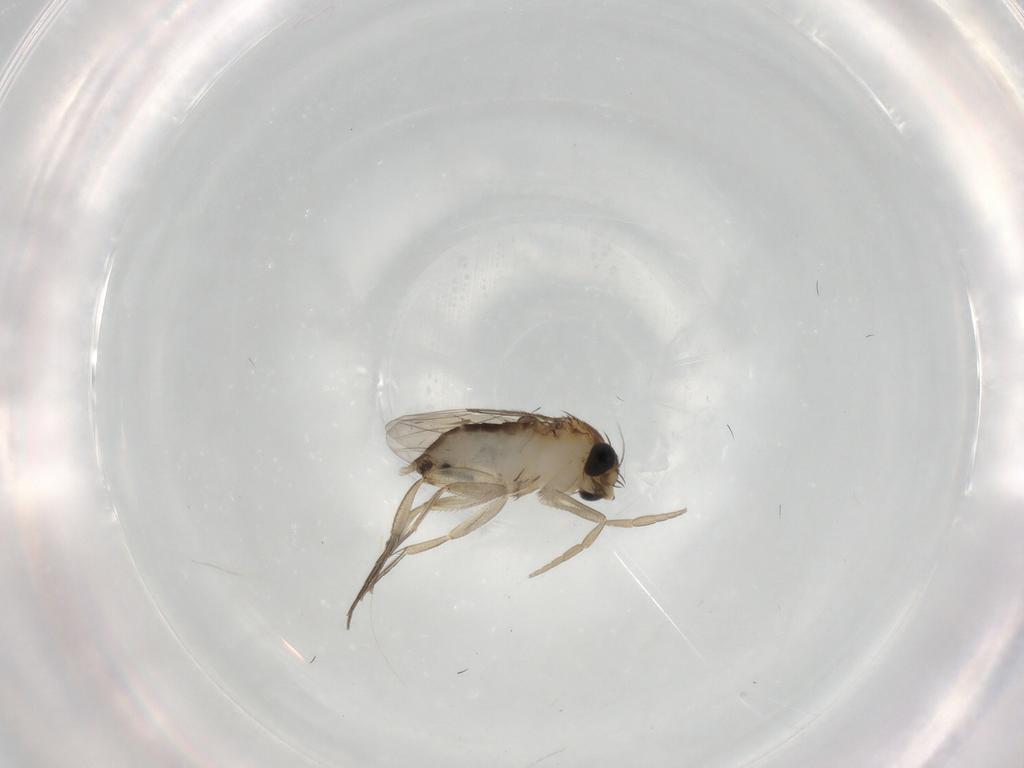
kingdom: Animalia
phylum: Arthropoda
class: Insecta
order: Diptera
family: Phoridae
